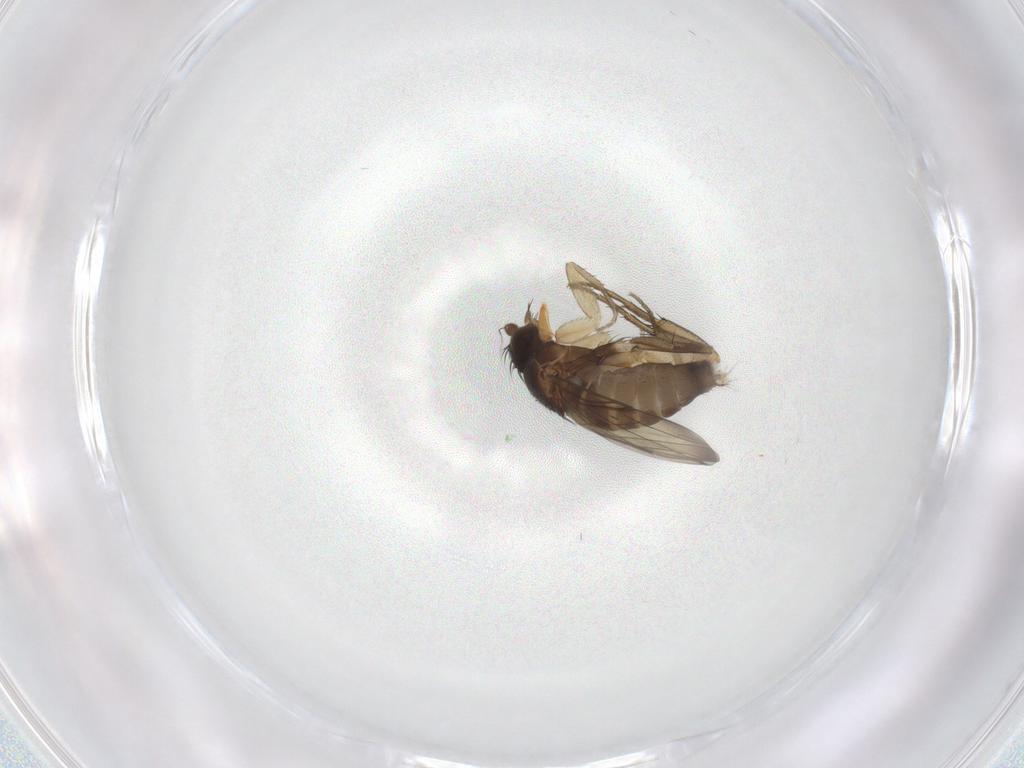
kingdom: Animalia
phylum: Arthropoda
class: Insecta
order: Diptera
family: Phoridae
